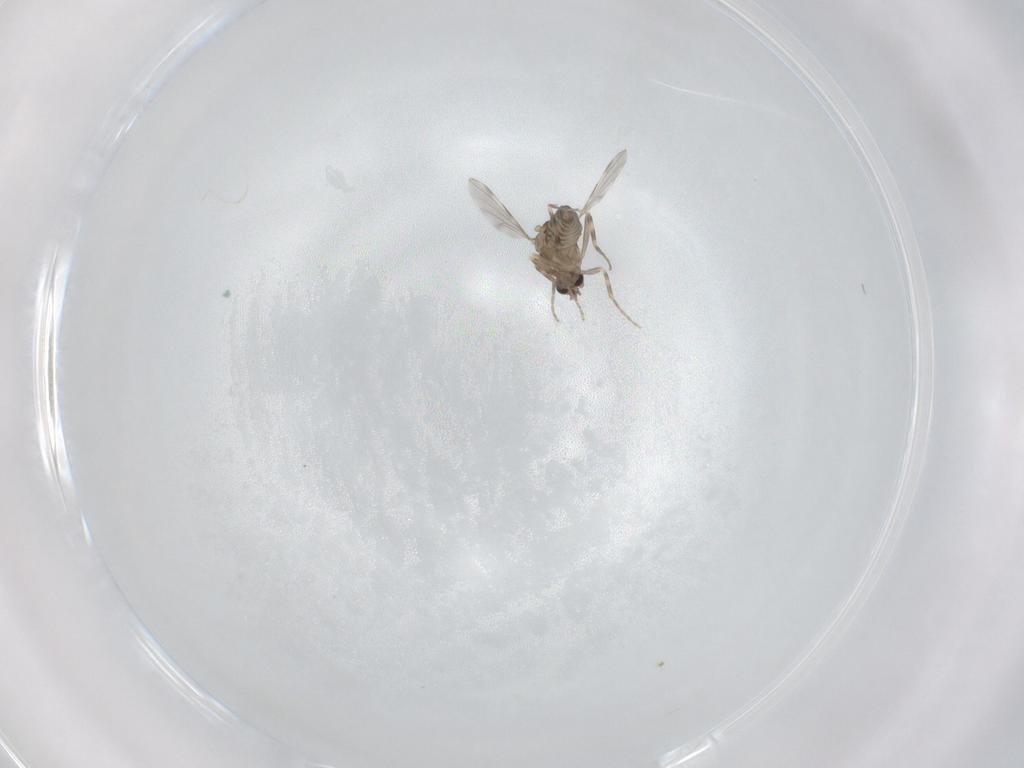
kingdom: Animalia
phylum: Arthropoda
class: Insecta
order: Diptera
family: Ceratopogonidae
